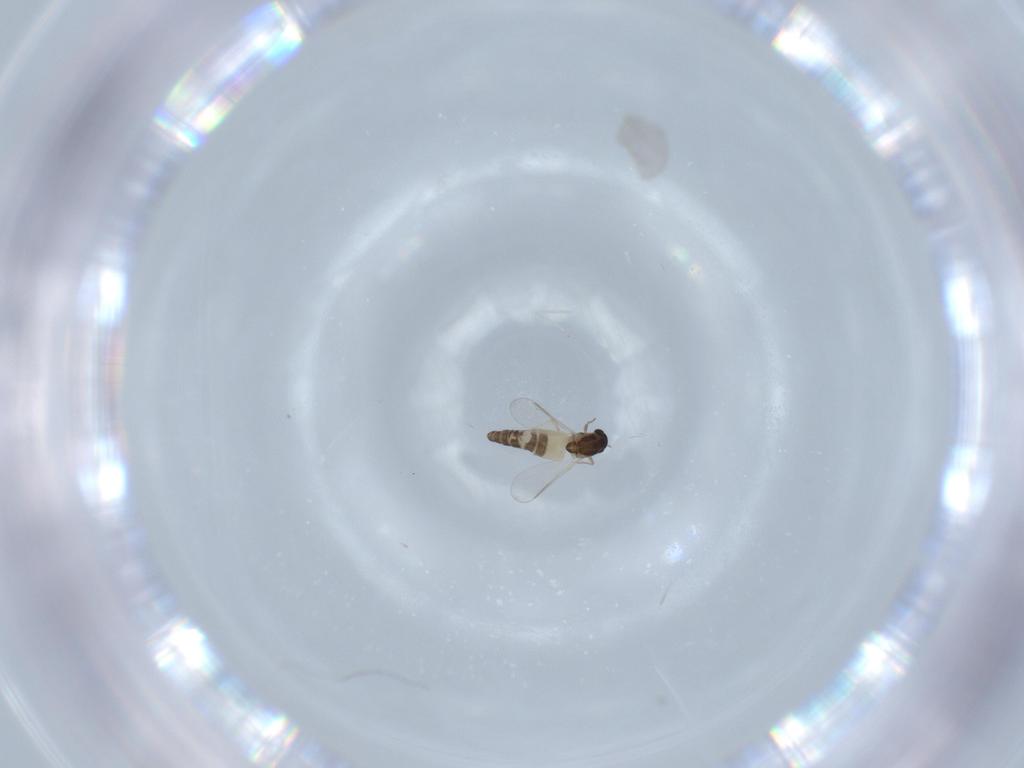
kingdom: Animalia
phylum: Arthropoda
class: Insecta
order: Diptera
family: Chironomidae
